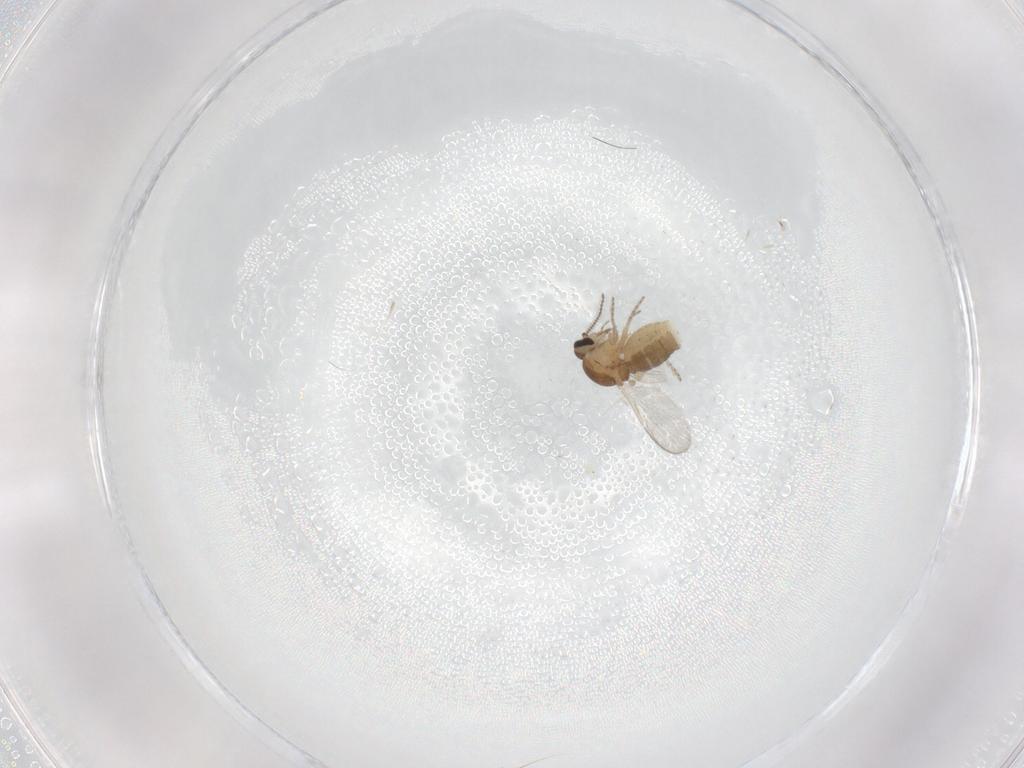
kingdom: Animalia
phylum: Arthropoda
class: Insecta
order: Diptera
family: Ceratopogonidae
